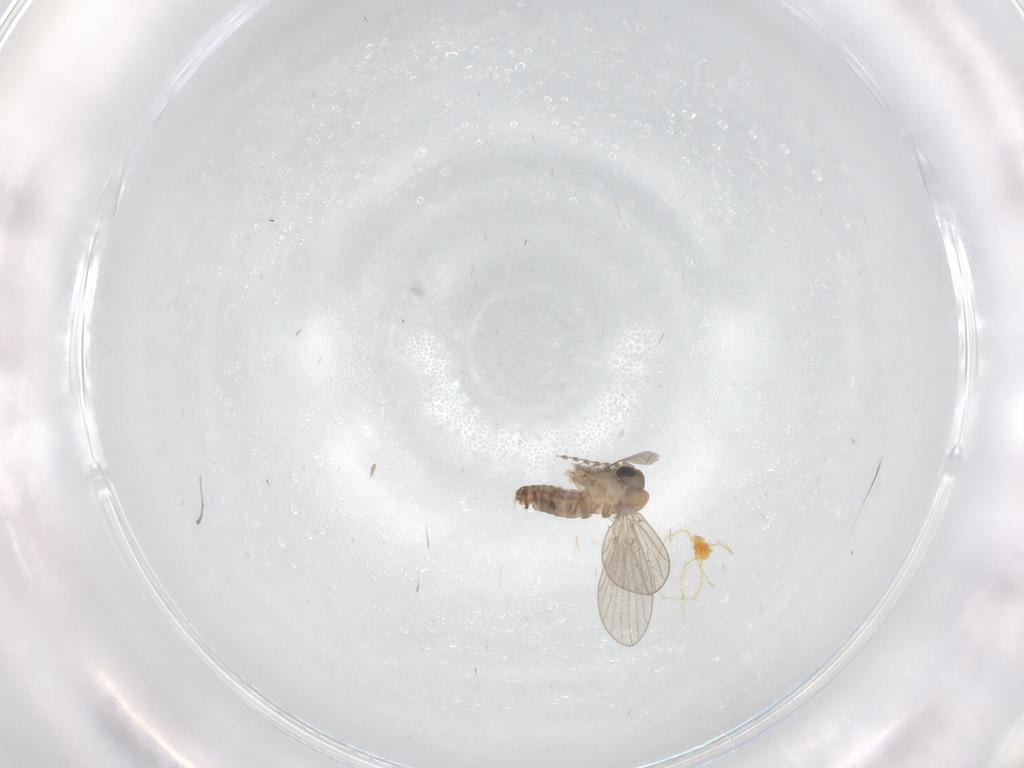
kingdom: Animalia
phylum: Arthropoda
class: Insecta
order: Diptera
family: Cecidomyiidae
